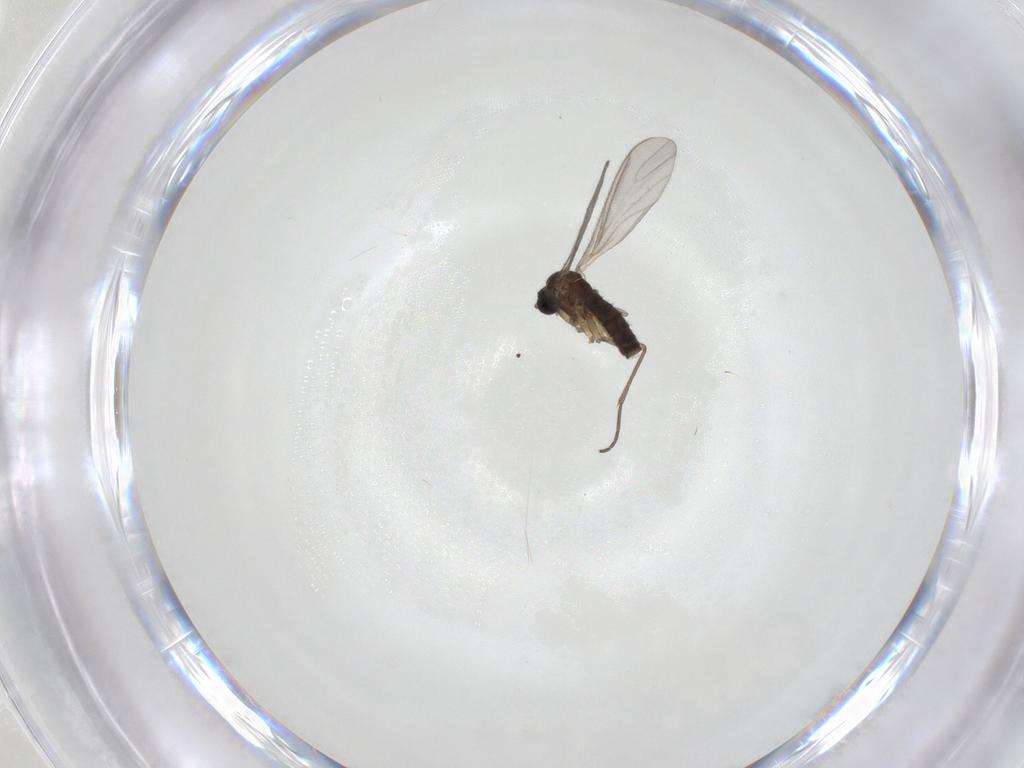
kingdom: Animalia
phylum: Arthropoda
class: Insecta
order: Diptera
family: Sciaridae
